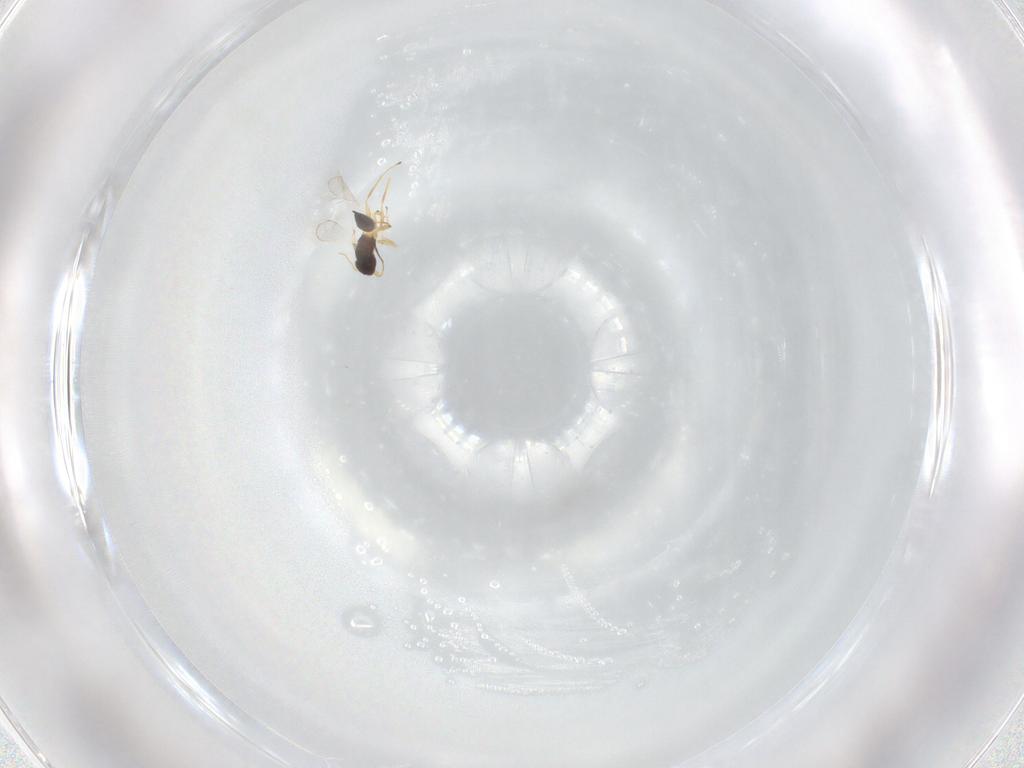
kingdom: Animalia
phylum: Arthropoda
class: Insecta
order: Hymenoptera
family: Mymaridae
